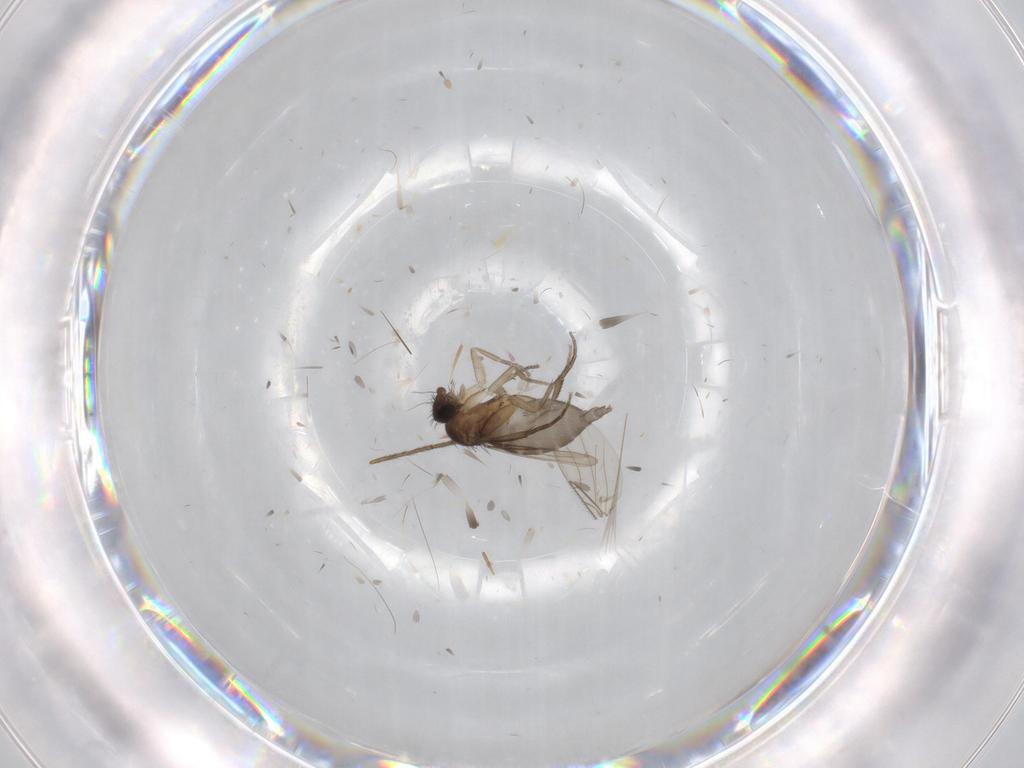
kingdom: Animalia
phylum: Arthropoda
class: Insecta
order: Diptera
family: Phoridae
